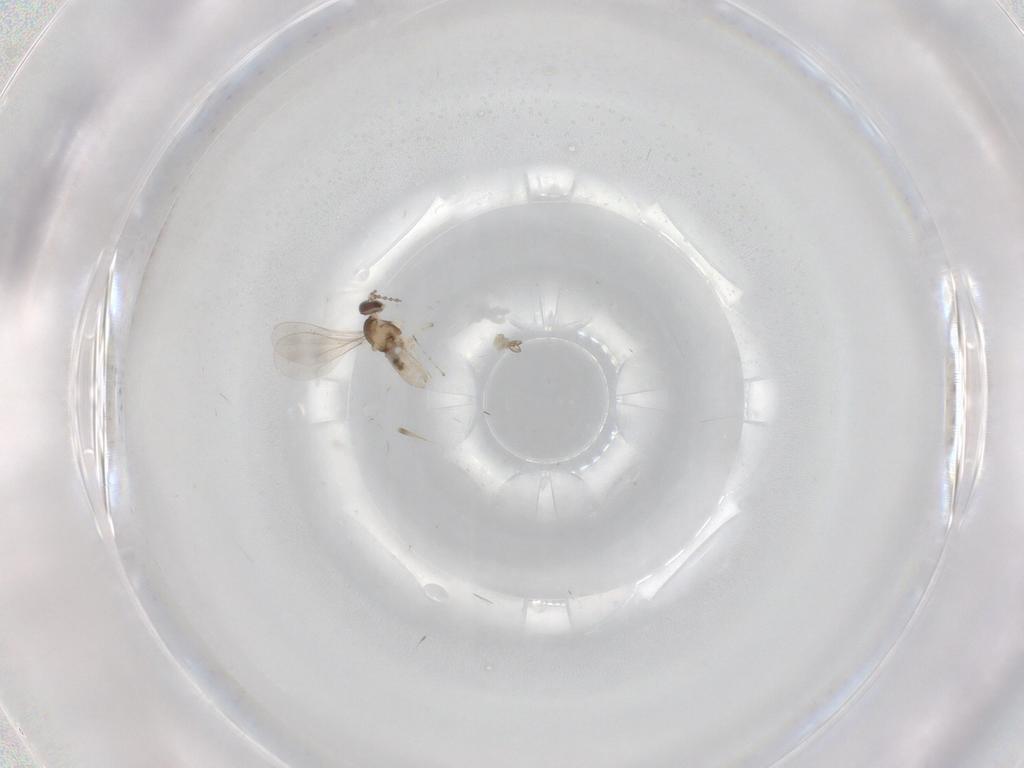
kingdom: Animalia
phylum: Arthropoda
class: Insecta
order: Diptera
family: Cecidomyiidae
